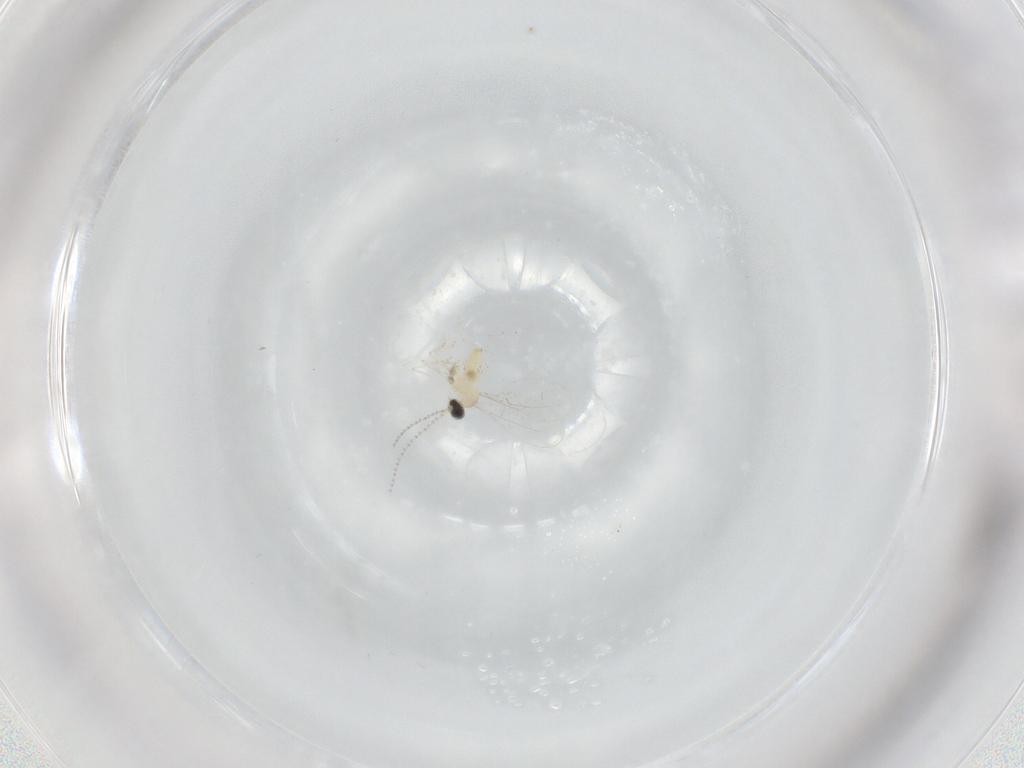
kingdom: Animalia
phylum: Arthropoda
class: Insecta
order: Diptera
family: Cecidomyiidae
